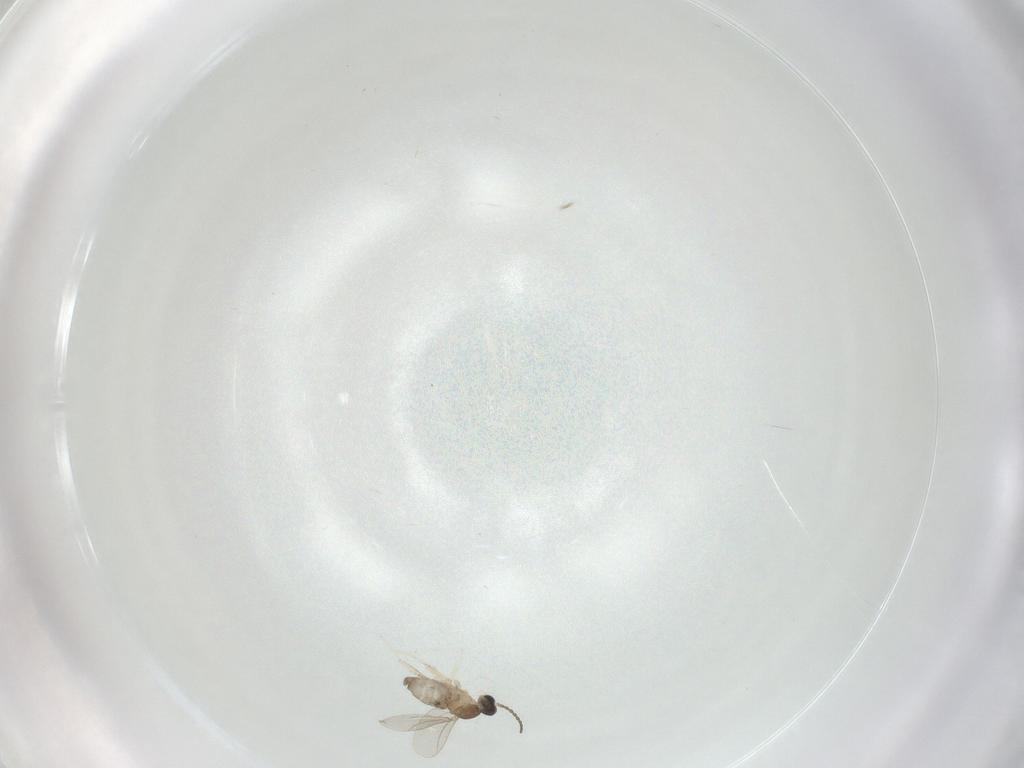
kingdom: Animalia
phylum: Arthropoda
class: Insecta
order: Diptera
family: Cecidomyiidae
